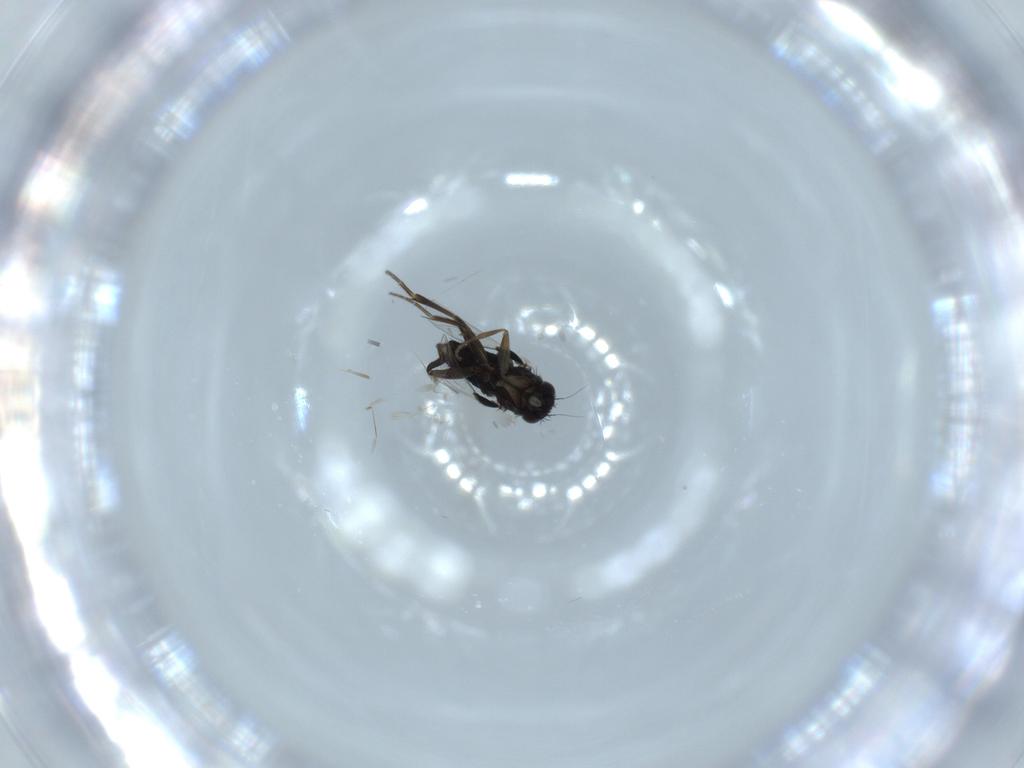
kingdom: Animalia
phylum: Arthropoda
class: Insecta
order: Diptera
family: Phoridae
